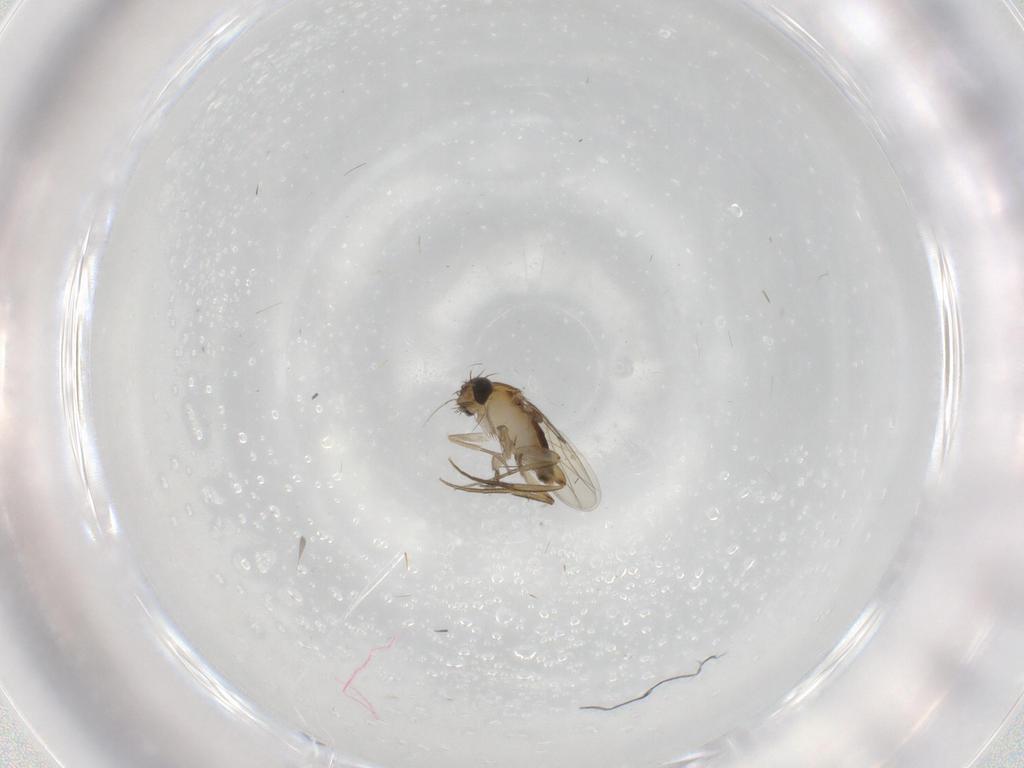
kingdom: Animalia
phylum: Arthropoda
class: Insecta
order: Diptera
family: Phoridae
